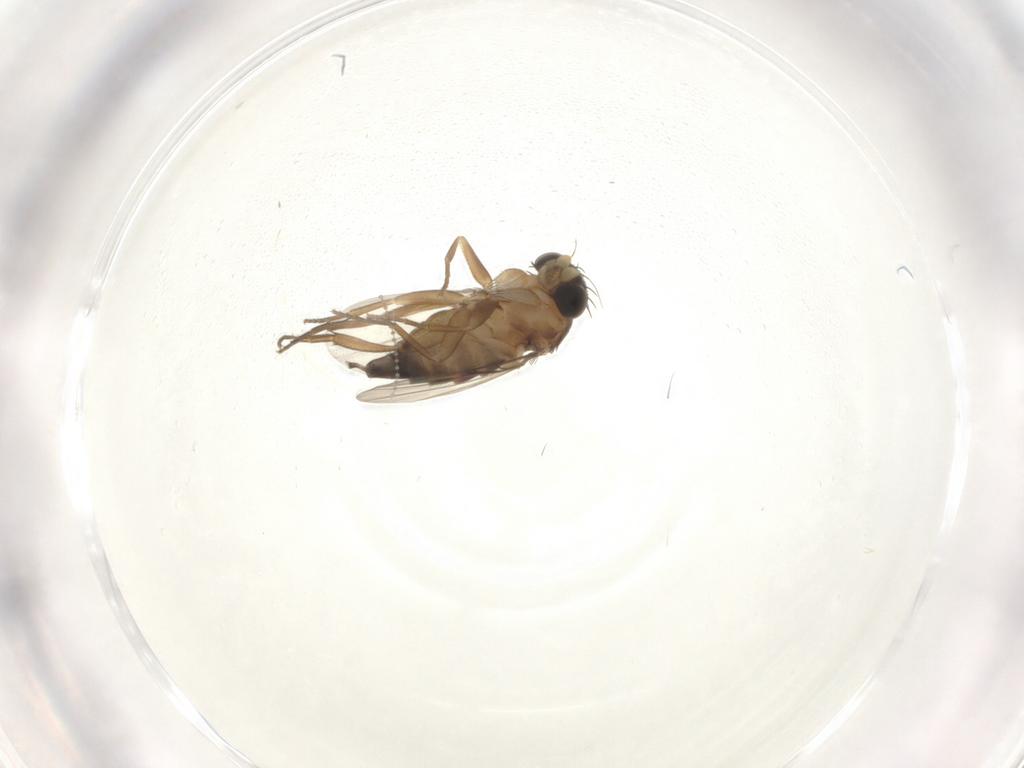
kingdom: Animalia
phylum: Arthropoda
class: Insecta
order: Diptera
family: Phoridae
